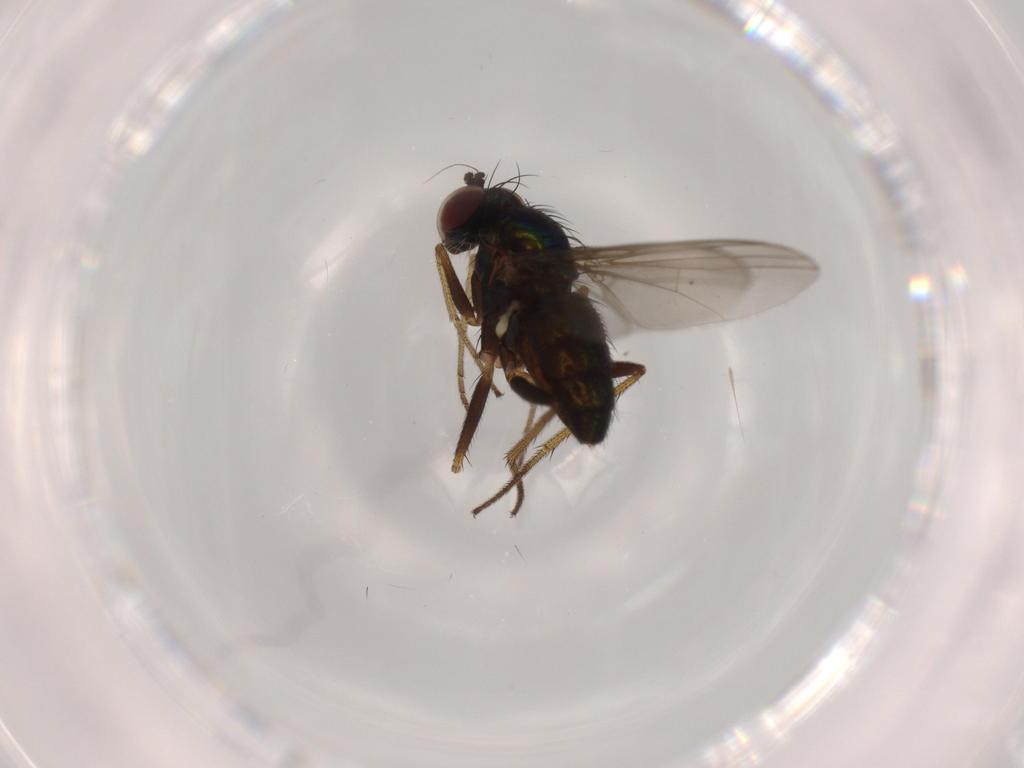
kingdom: Animalia
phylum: Arthropoda
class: Insecta
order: Diptera
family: Dolichopodidae
